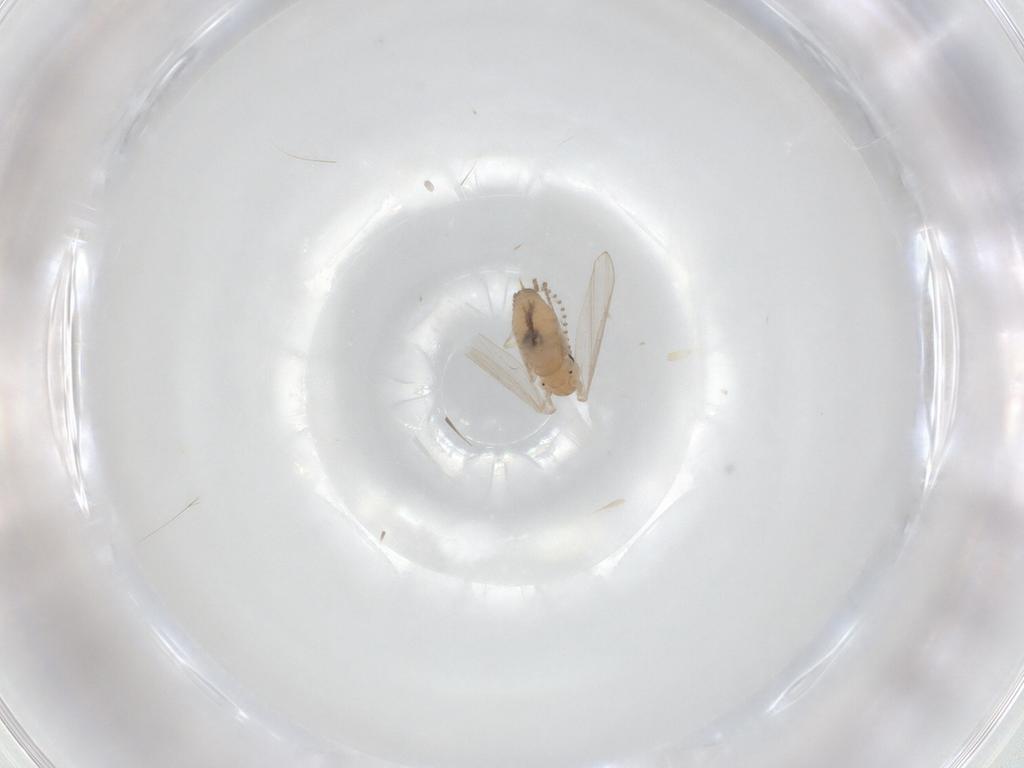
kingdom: Animalia
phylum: Arthropoda
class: Insecta
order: Diptera
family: Psychodidae
